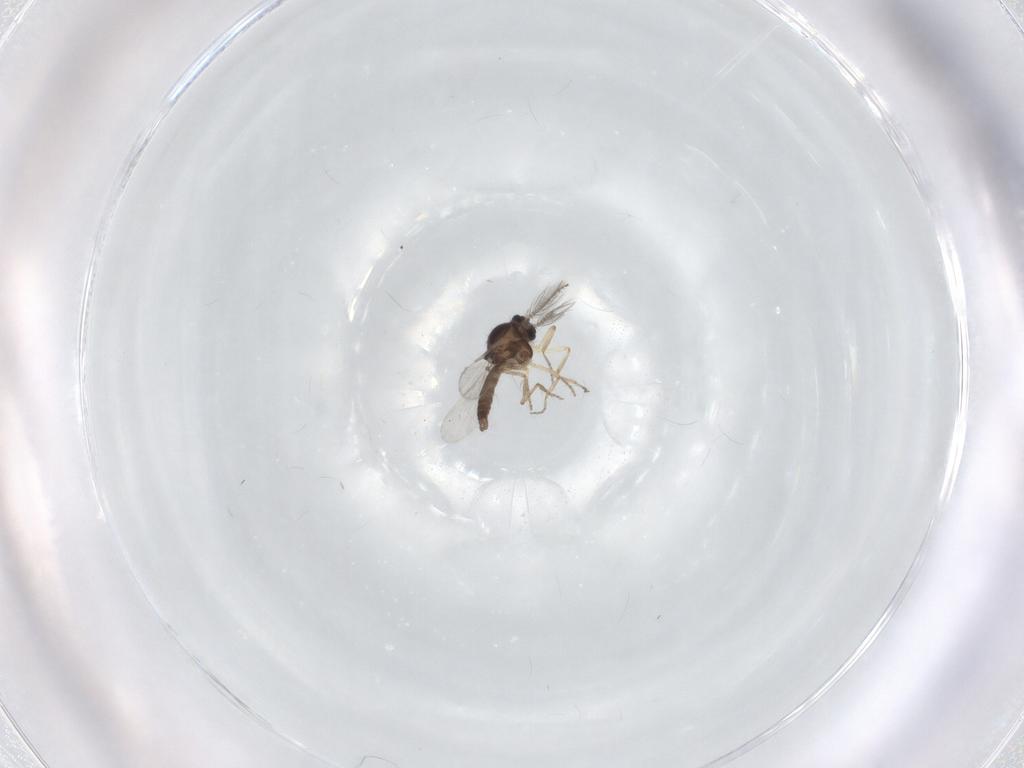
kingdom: Animalia
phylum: Arthropoda
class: Insecta
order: Diptera
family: Ceratopogonidae
